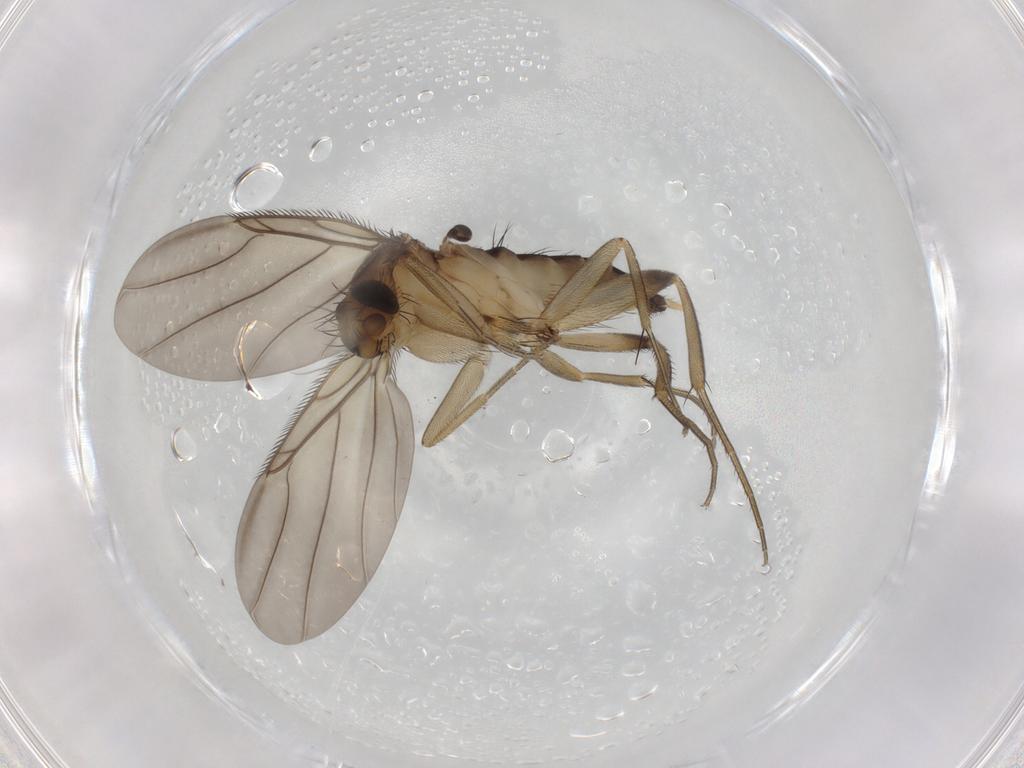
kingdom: Animalia
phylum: Arthropoda
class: Insecta
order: Diptera
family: Phoridae
